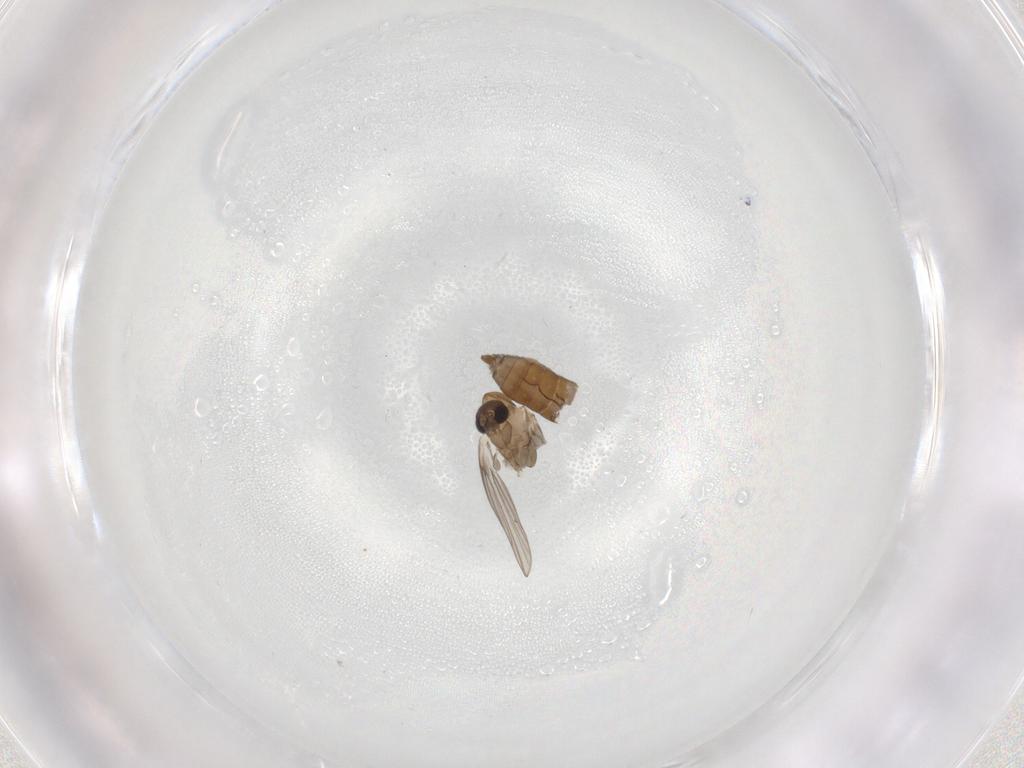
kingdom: Animalia
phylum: Arthropoda
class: Insecta
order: Diptera
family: Psychodidae
